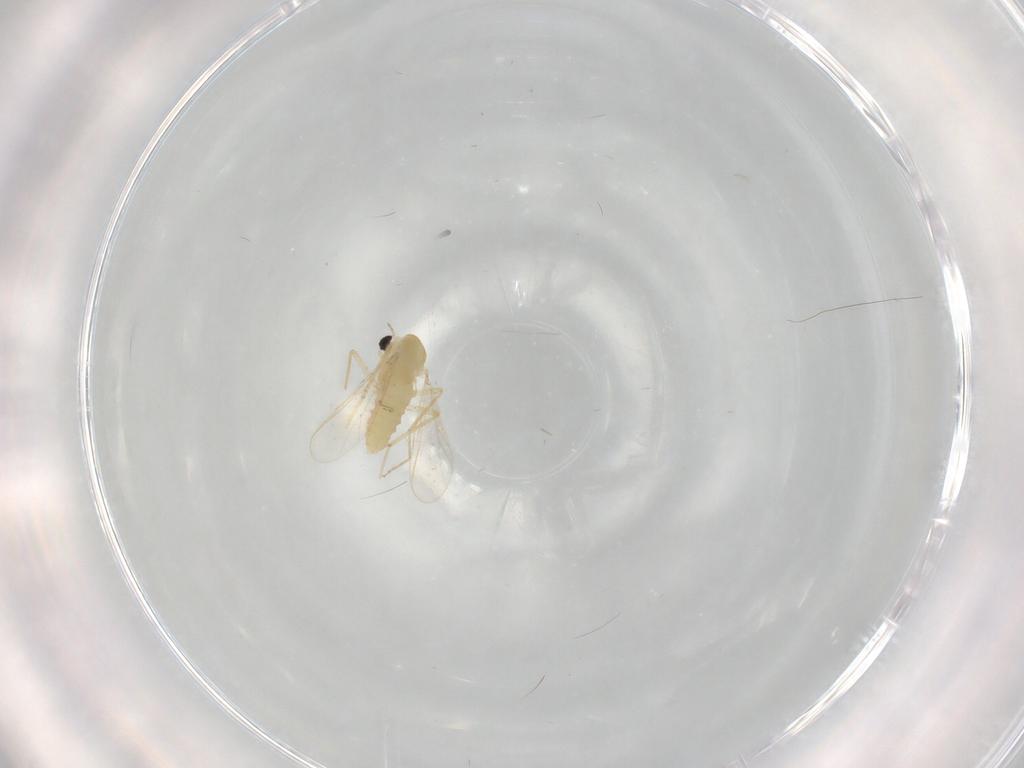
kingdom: Animalia
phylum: Arthropoda
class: Insecta
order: Diptera
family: Chironomidae
